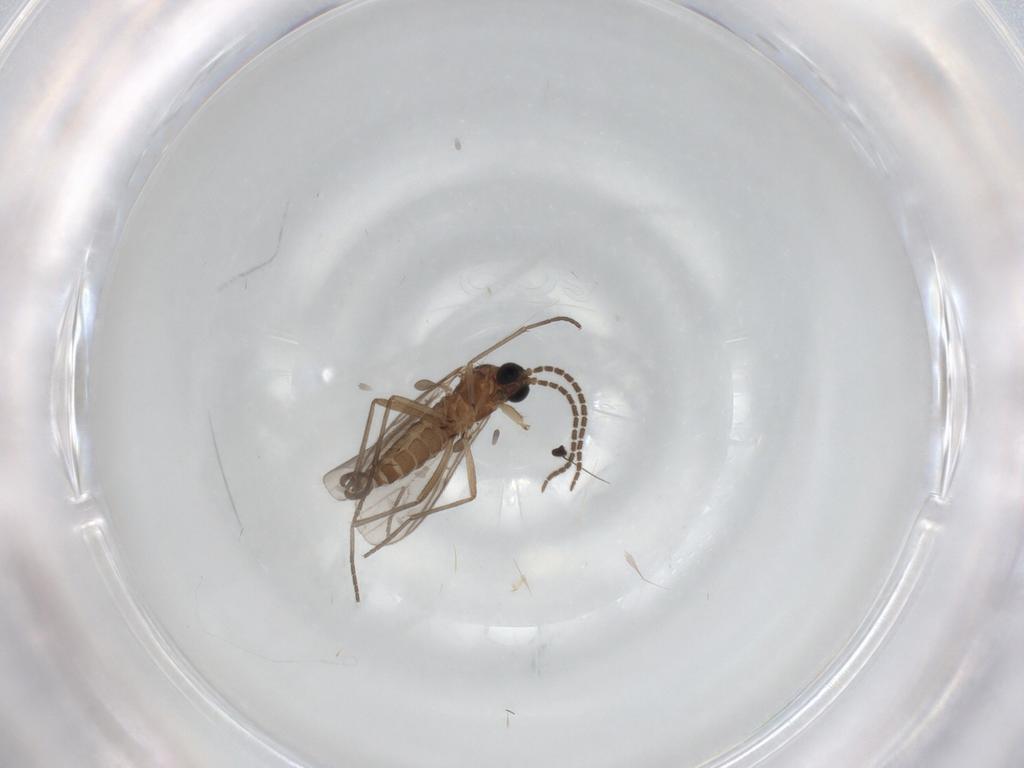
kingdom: Animalia
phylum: Arthropoda
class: Insecta
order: Diptera
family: Sciaridae
